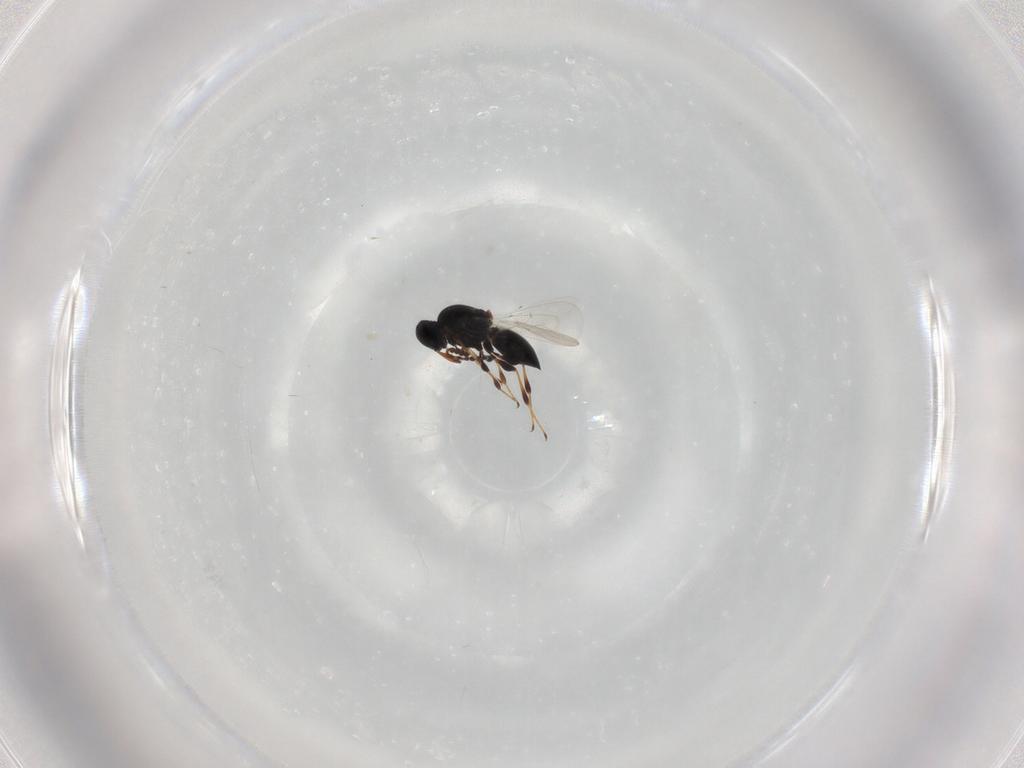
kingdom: Animalia
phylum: Arthropoda
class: Insecta
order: Hymenoptera
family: Platygastridae
